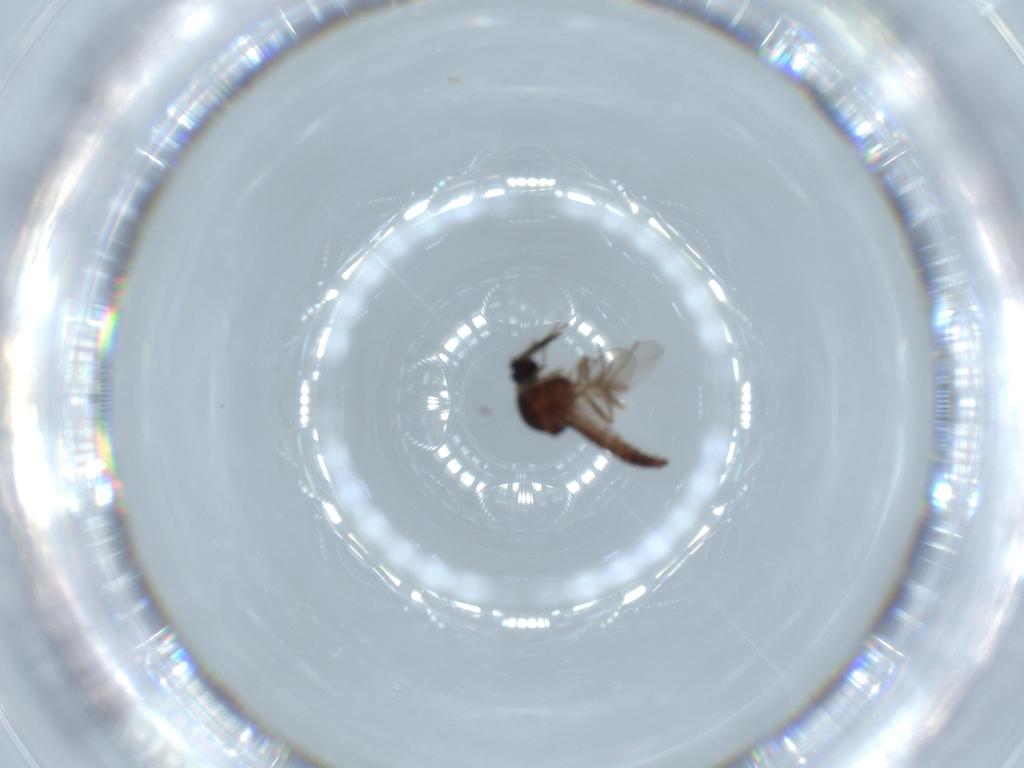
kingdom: Animalia
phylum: Arthropoda
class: Insecta
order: Diptera
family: Ceratopogonidae
